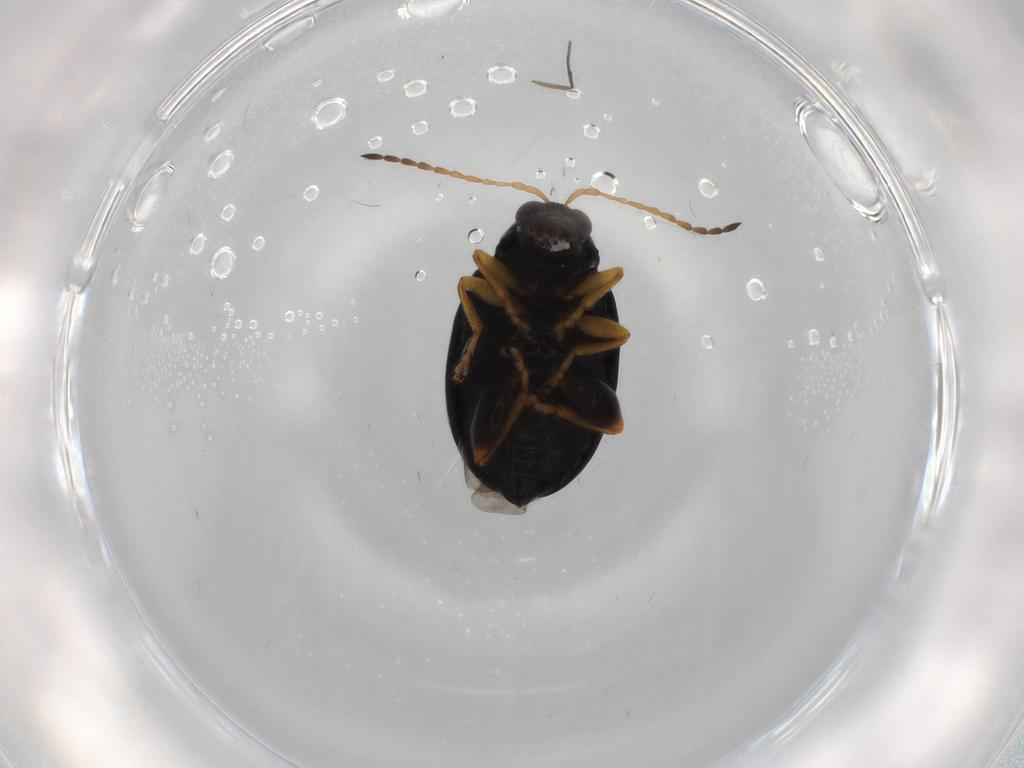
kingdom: Animalia
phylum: Arthropoda
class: Insecta
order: Coleoptera
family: Chrysomelidae
